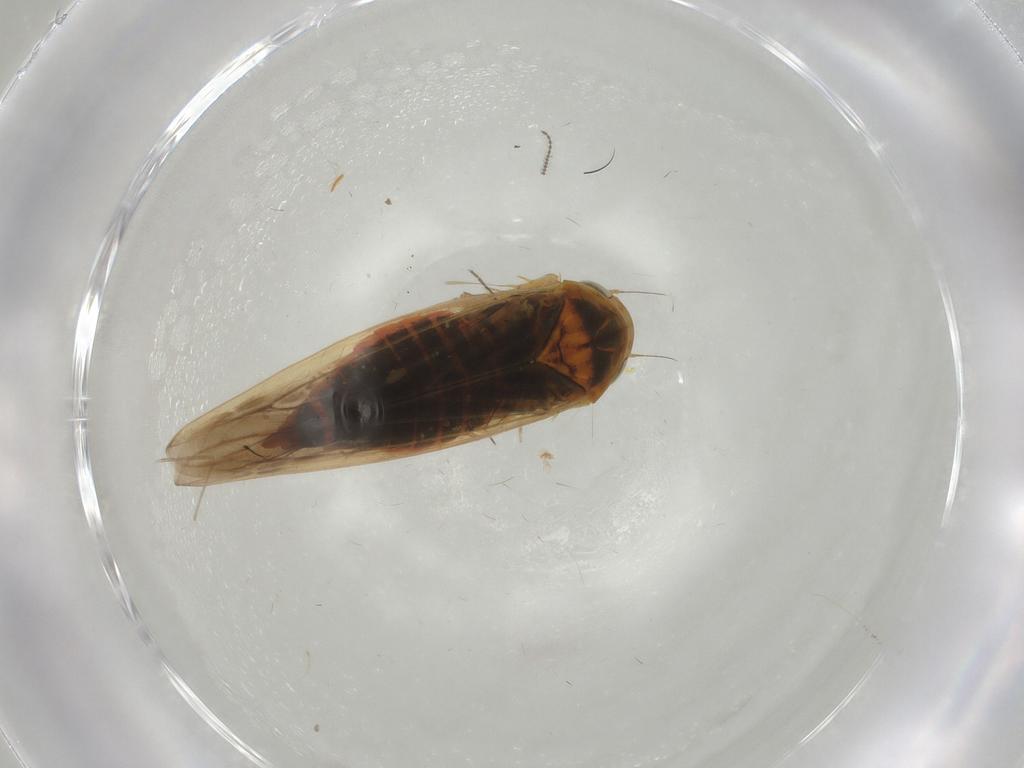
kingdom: Animalia
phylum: Arthropoda
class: Insecta
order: Hemiptera
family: Cicadellidae
